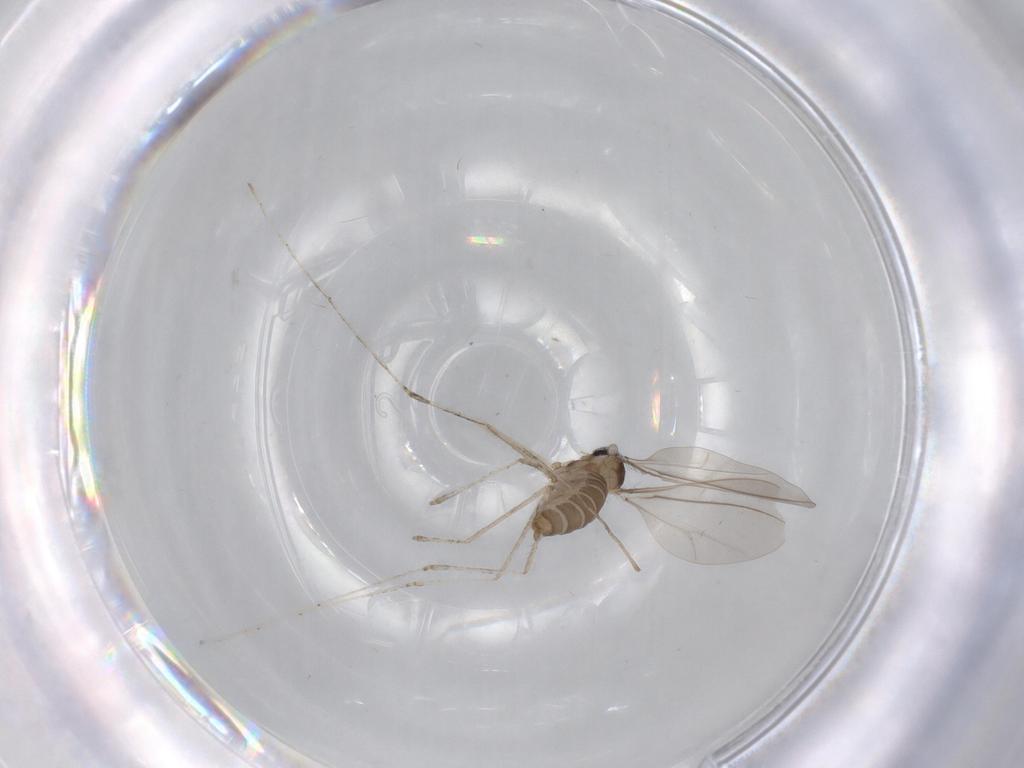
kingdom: Animalia
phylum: Arthropoda
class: Insecta
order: Diptera
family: Cecidomyiidae
